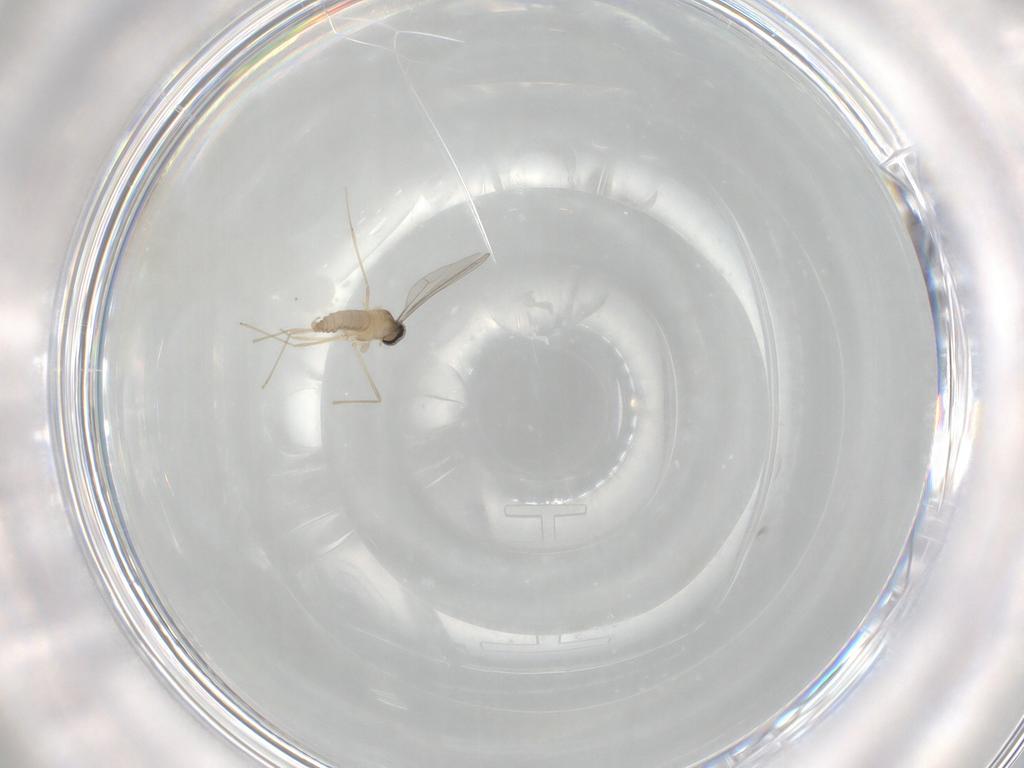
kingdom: Animalia
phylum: Arthropoda
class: Insecta
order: Diptera
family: Cecidomyiidae
